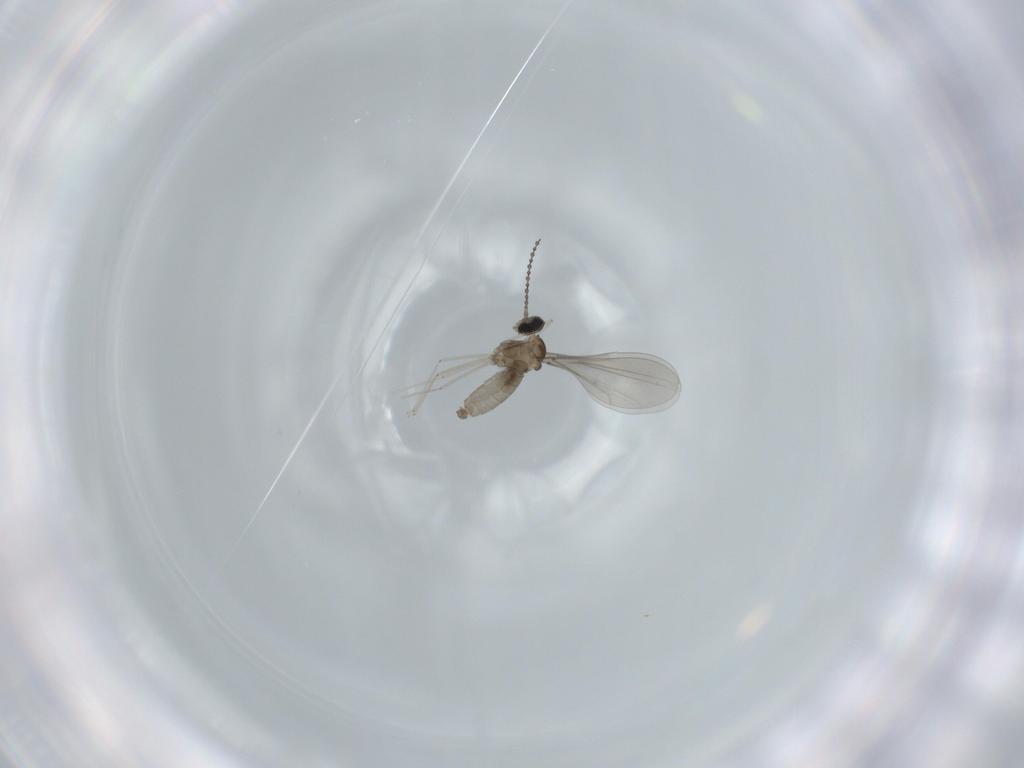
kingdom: Animalia
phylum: Arthropoda
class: Insecta
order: Diptera
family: Cecidomyiidae
